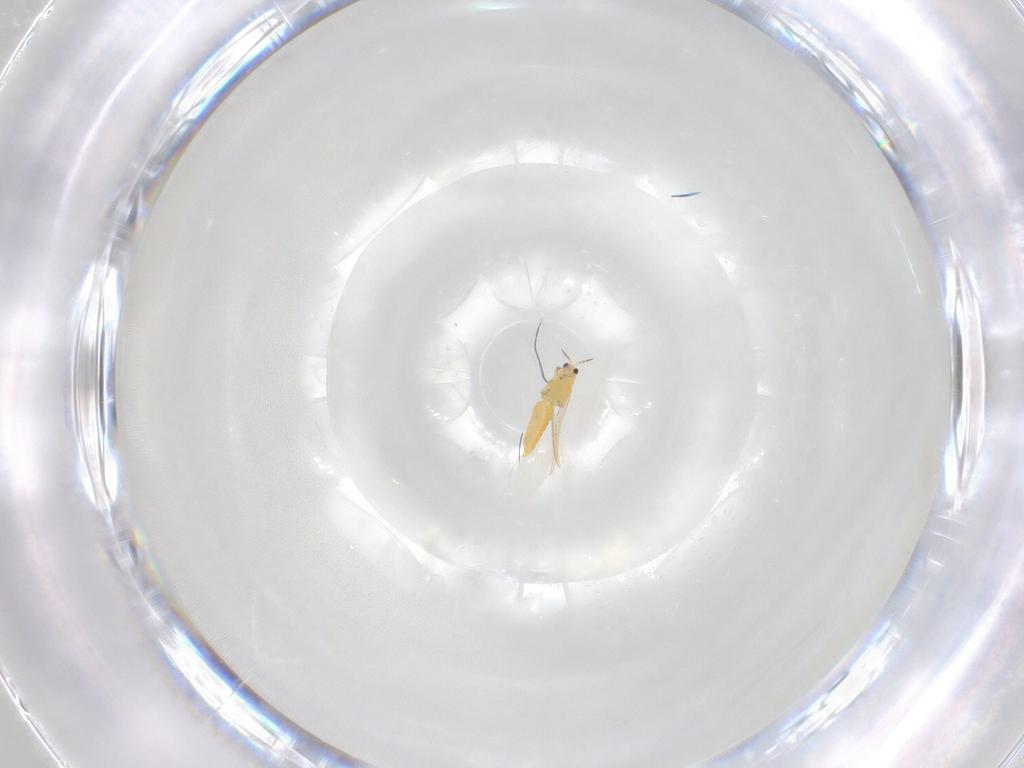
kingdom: Animalia
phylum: Arthropoda
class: Insecta
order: Thysanoptera
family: Thripidae
